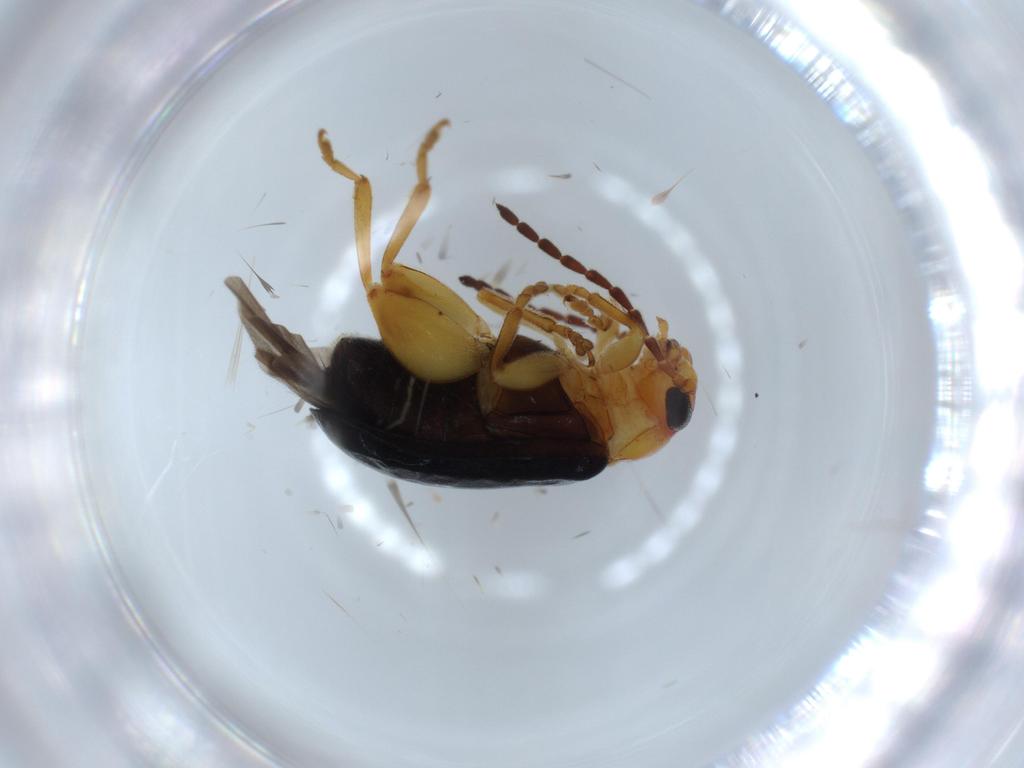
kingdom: Animalia
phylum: Arthropoda
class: Insecta
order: Coleoptera
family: Chrysomelidae
